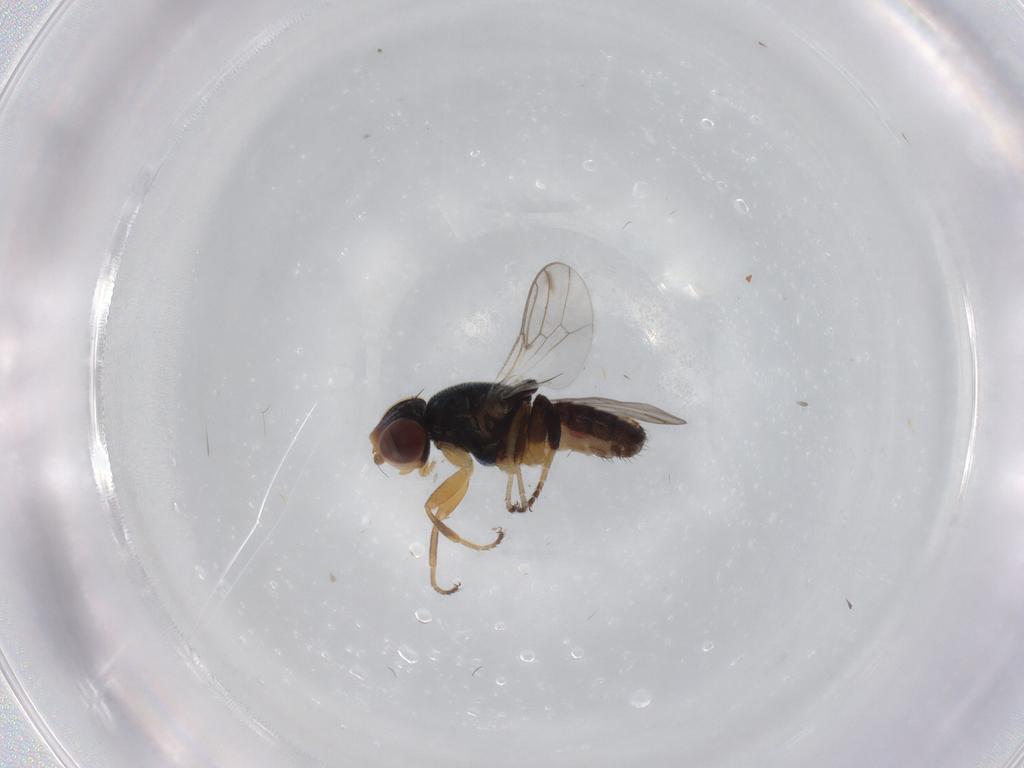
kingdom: Animalia
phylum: Arthropoda
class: Insecta
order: Diptera
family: Chloropidae
